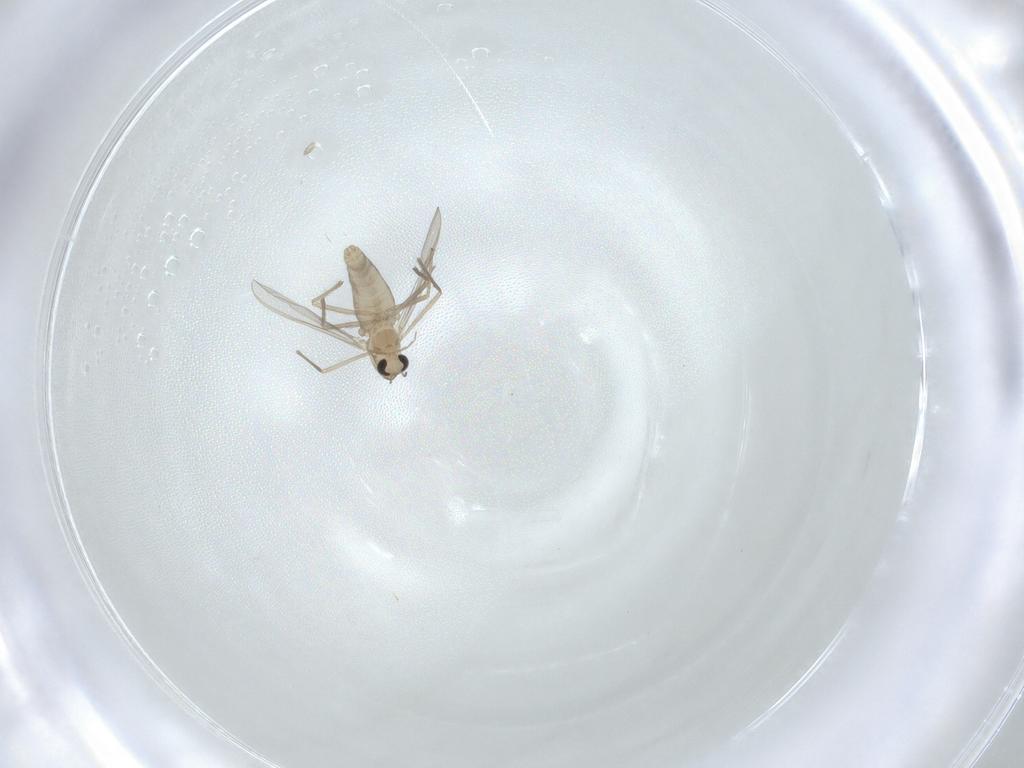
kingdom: Animalia
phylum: Arthropoda
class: Insecta
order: Diptera
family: Chironomidae
